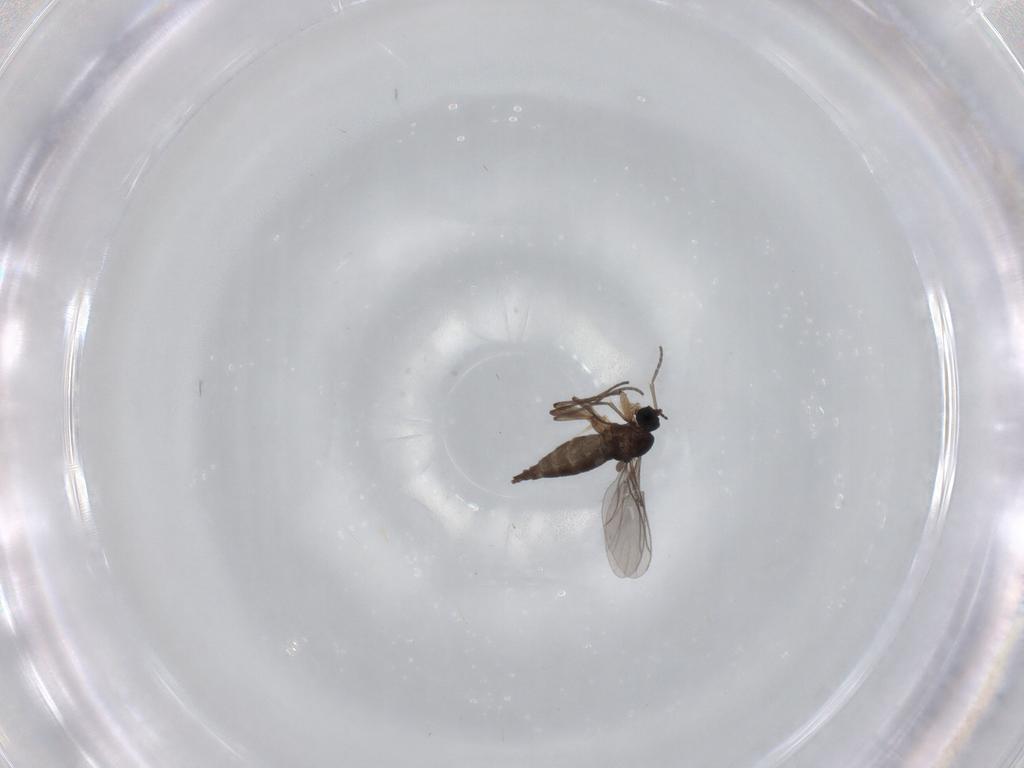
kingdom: Animalia
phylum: Arthropoda
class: Insecta
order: Diptera
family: Sciaridae
